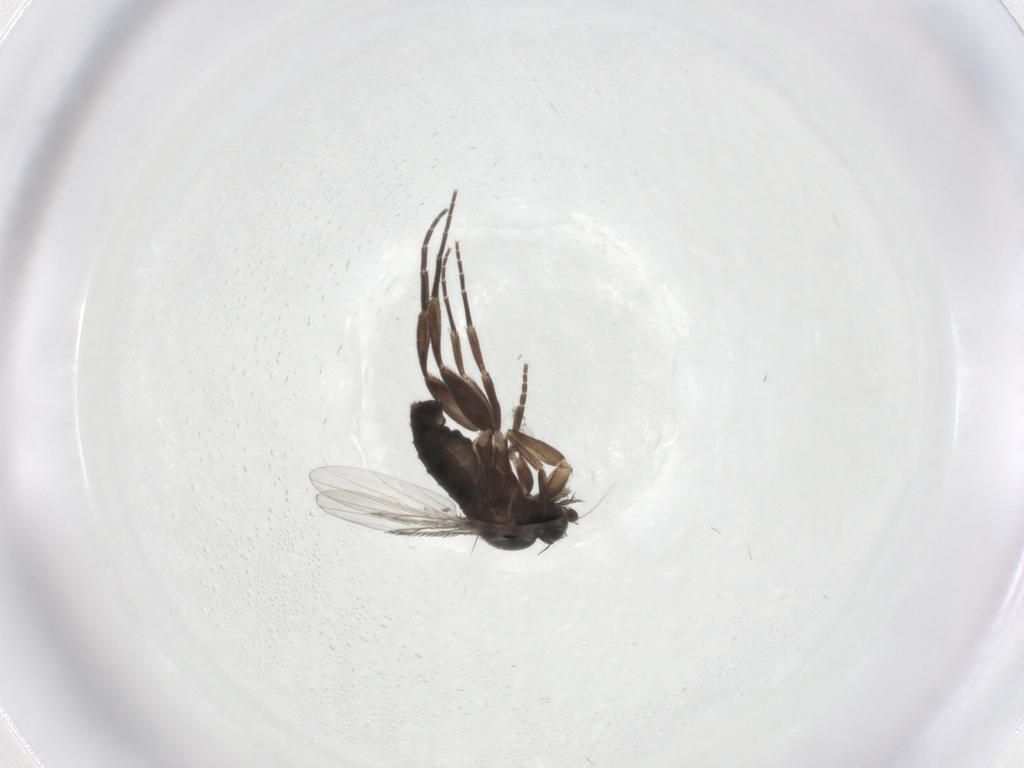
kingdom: Animalia
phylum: Arthropoda
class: Insecta
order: Diptera
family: Phoridae
